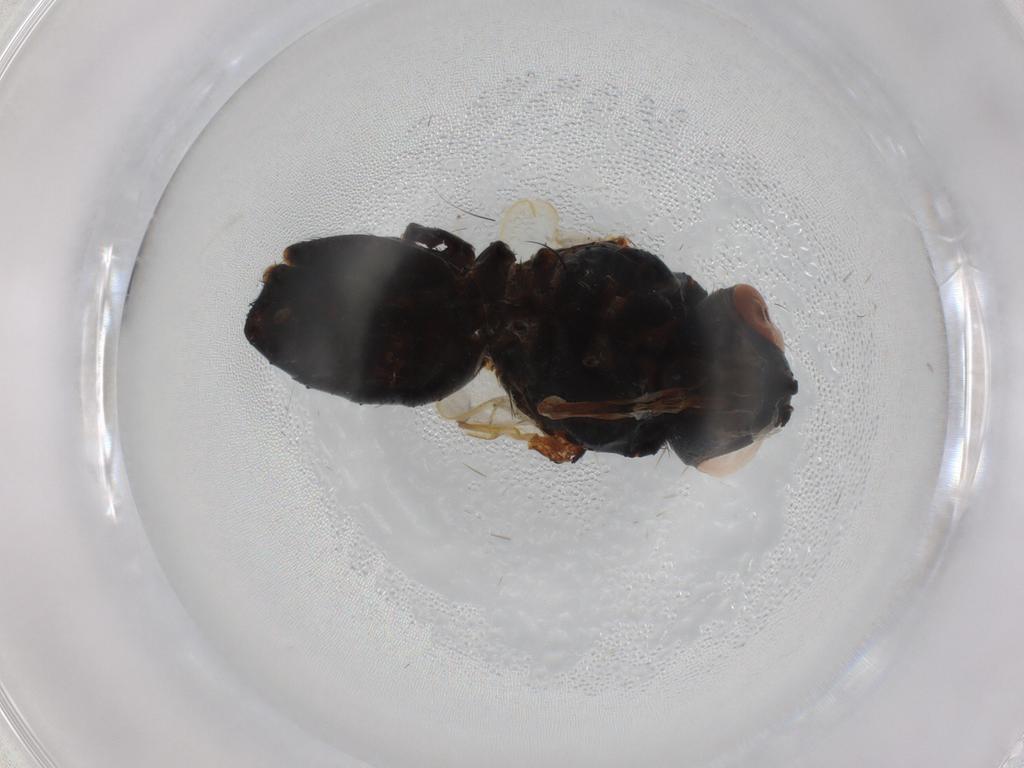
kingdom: Animalia
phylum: Arthropoda
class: Insecta
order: Diptera
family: Tachinidae
